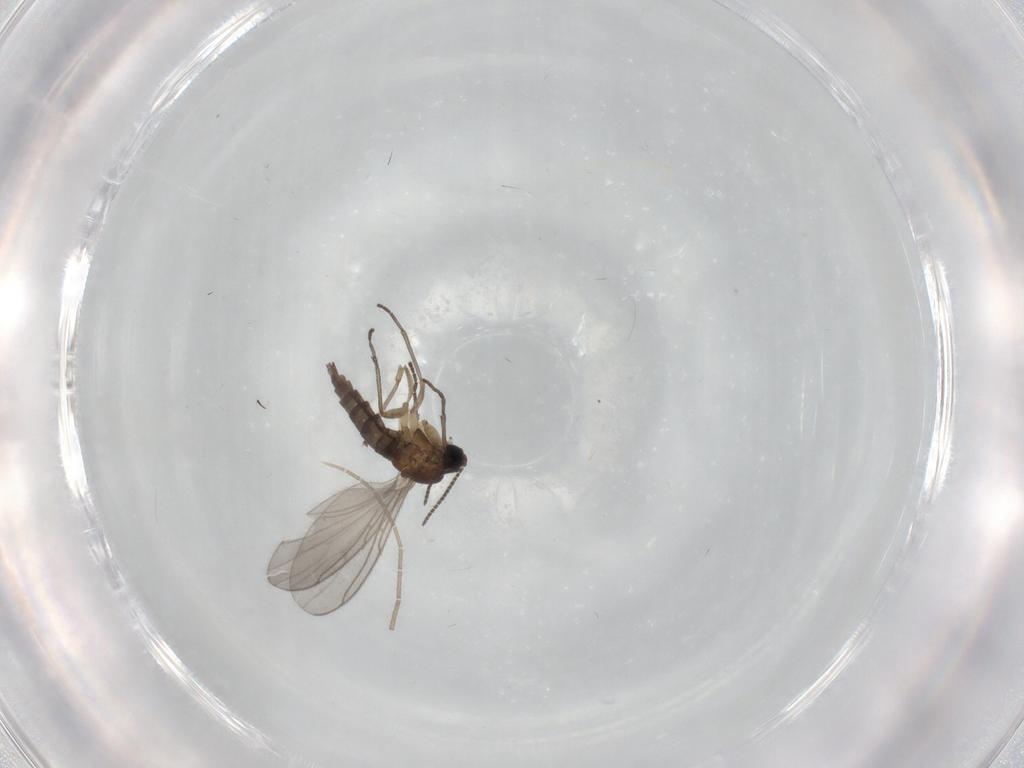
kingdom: Animalia
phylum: Arthropoda
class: Insecta
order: Diptera
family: Sciaridae
